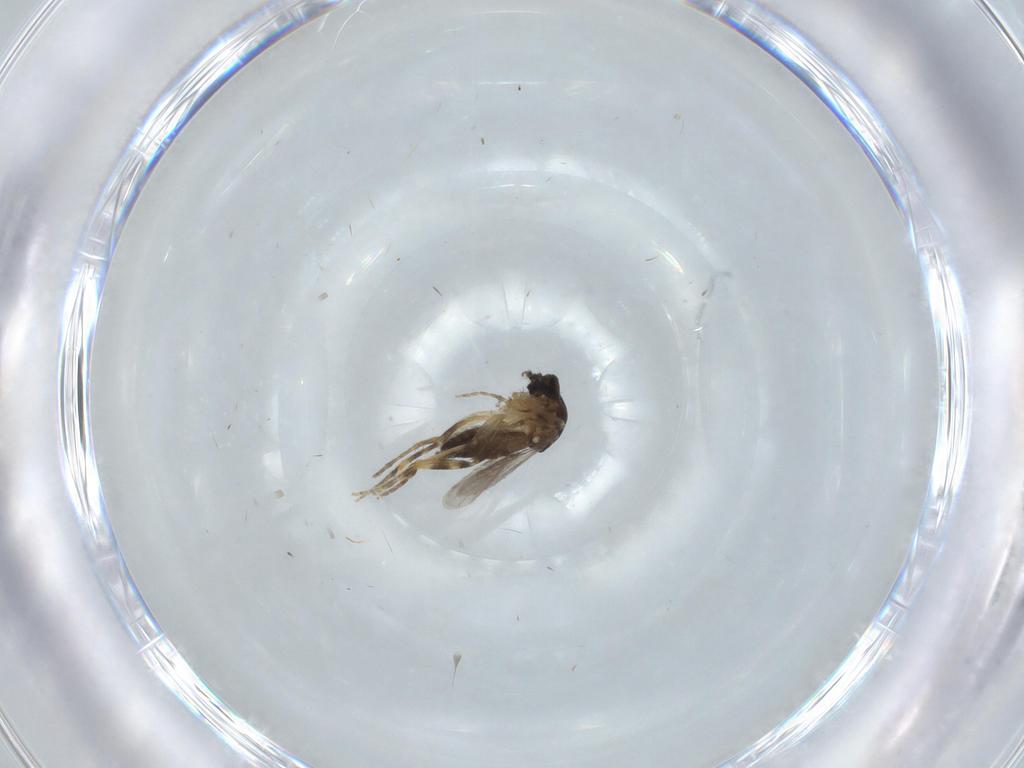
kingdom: Animalia
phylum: Arthropoda
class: Insecta
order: Diptera
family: Ceratopogonidae
